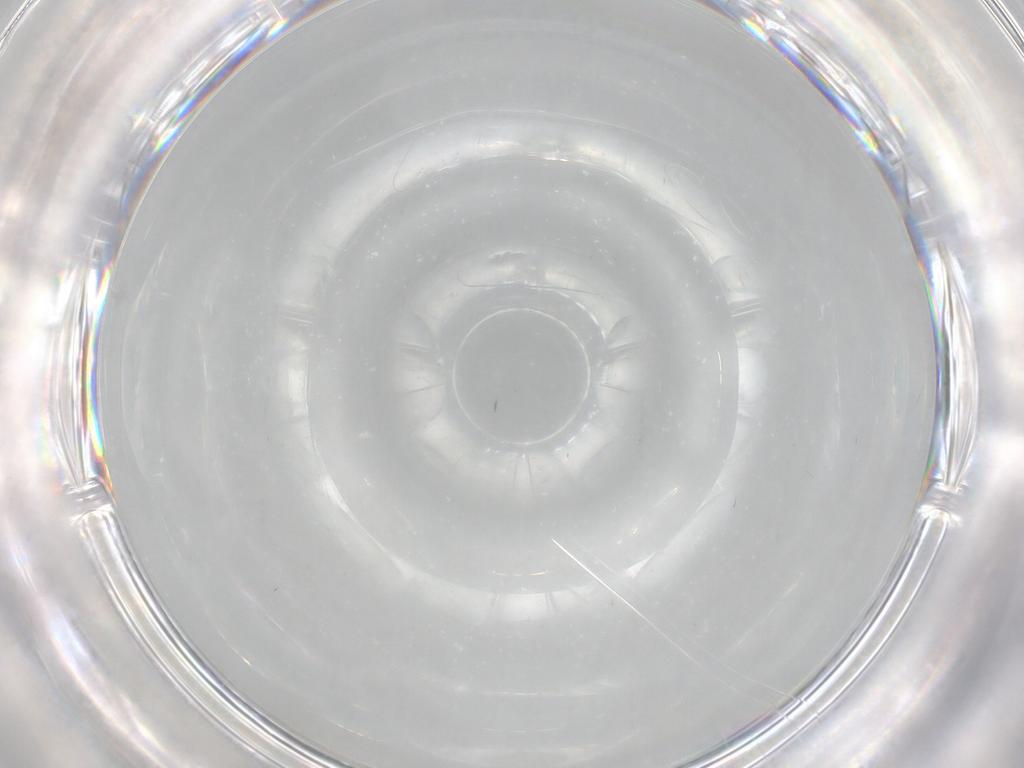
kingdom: Animalia
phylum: Arthropoda
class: Insecta
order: Diptera
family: Cecidomyiidae
